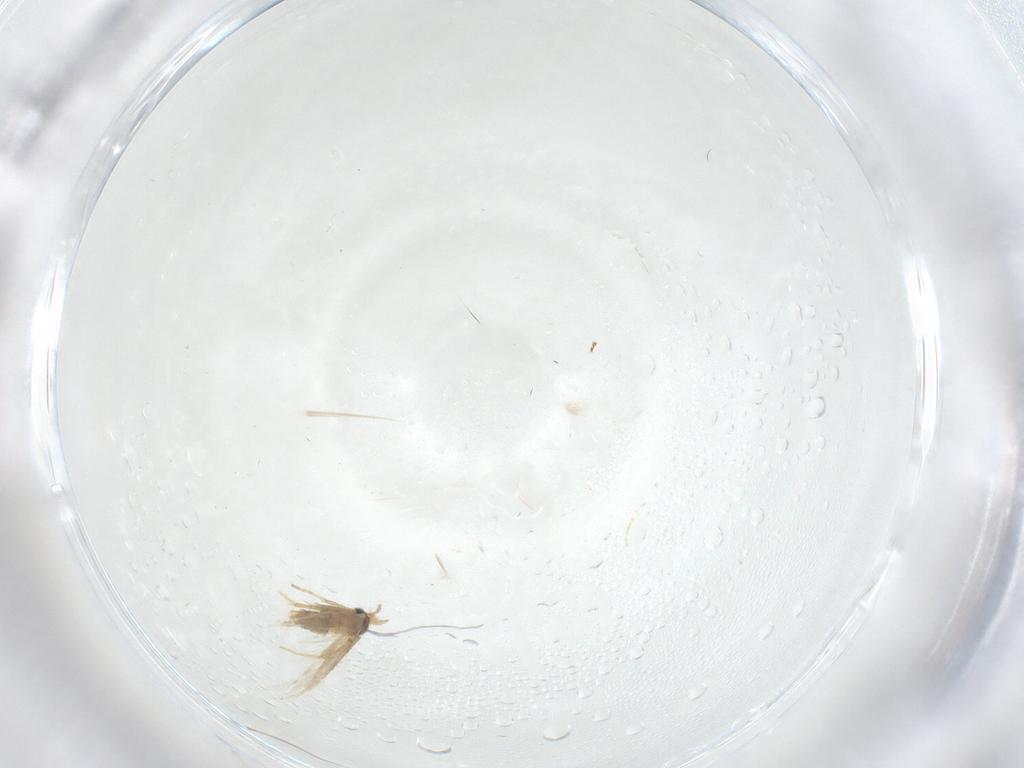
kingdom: Animalia
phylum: Arthropoda
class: Insecta
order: Lepidoptera
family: Nepticulidae
